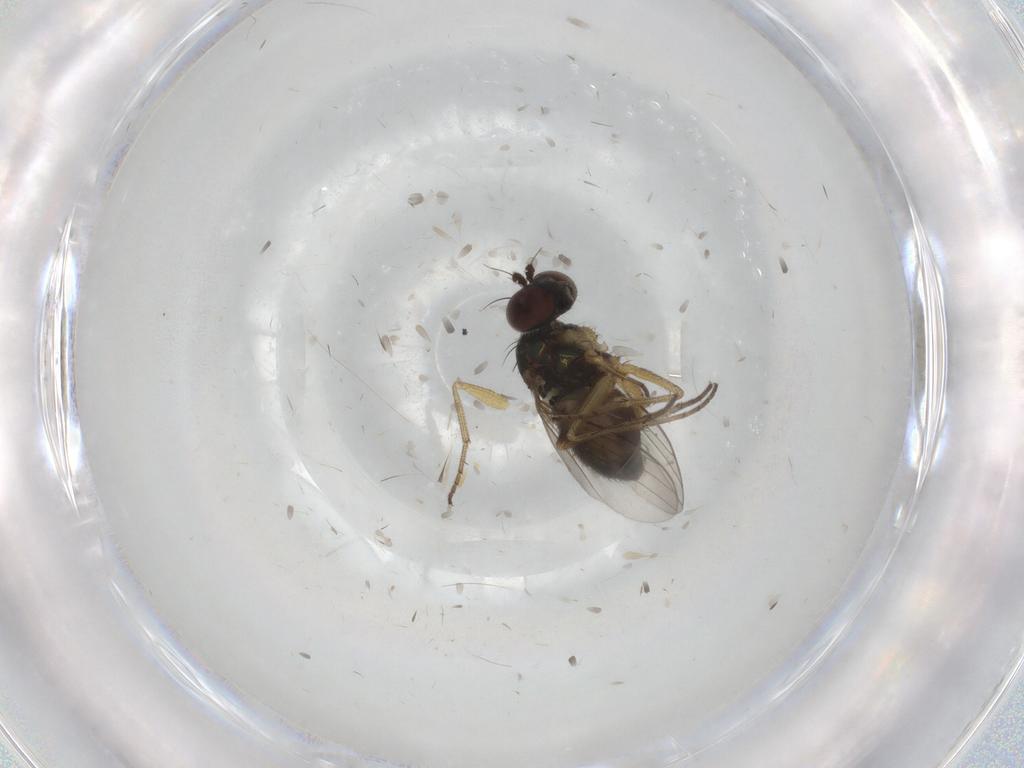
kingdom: Animalia
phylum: Arthropoda
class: Insecta
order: Diptera
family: Dolichopodidae
